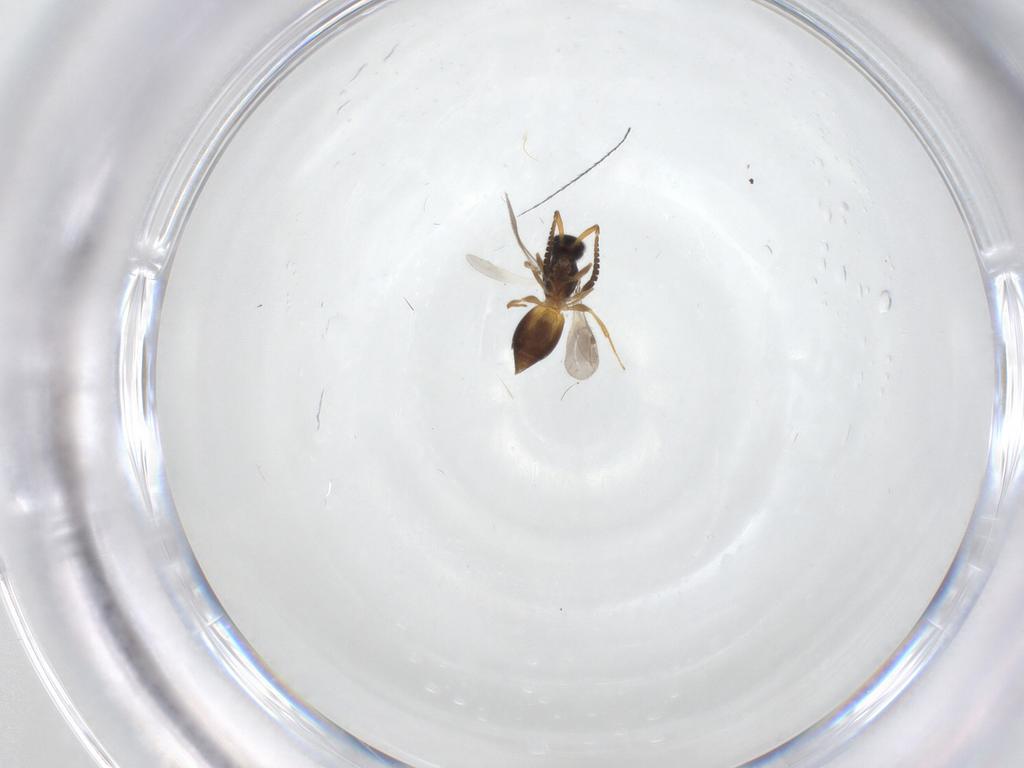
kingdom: Animalia
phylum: Arthropoda
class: Insecta
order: Hymenoptera
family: Megaspilidae
